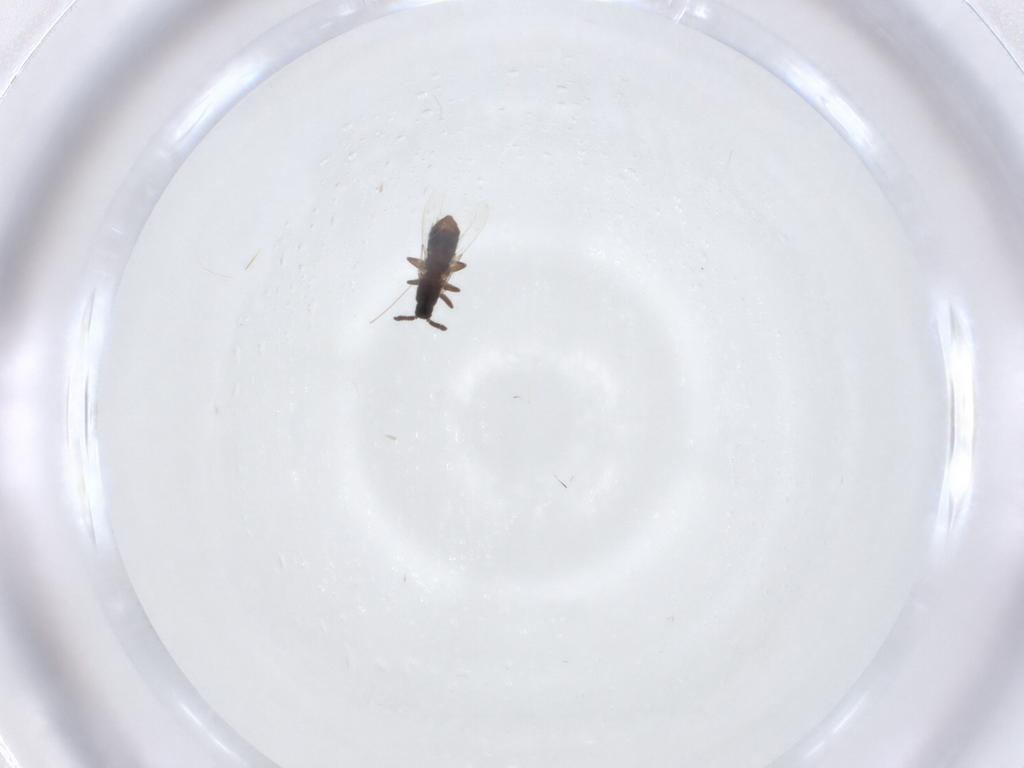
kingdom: Animalia
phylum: Arthropoda
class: Insecta
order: Diptera
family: Scatopsidae
